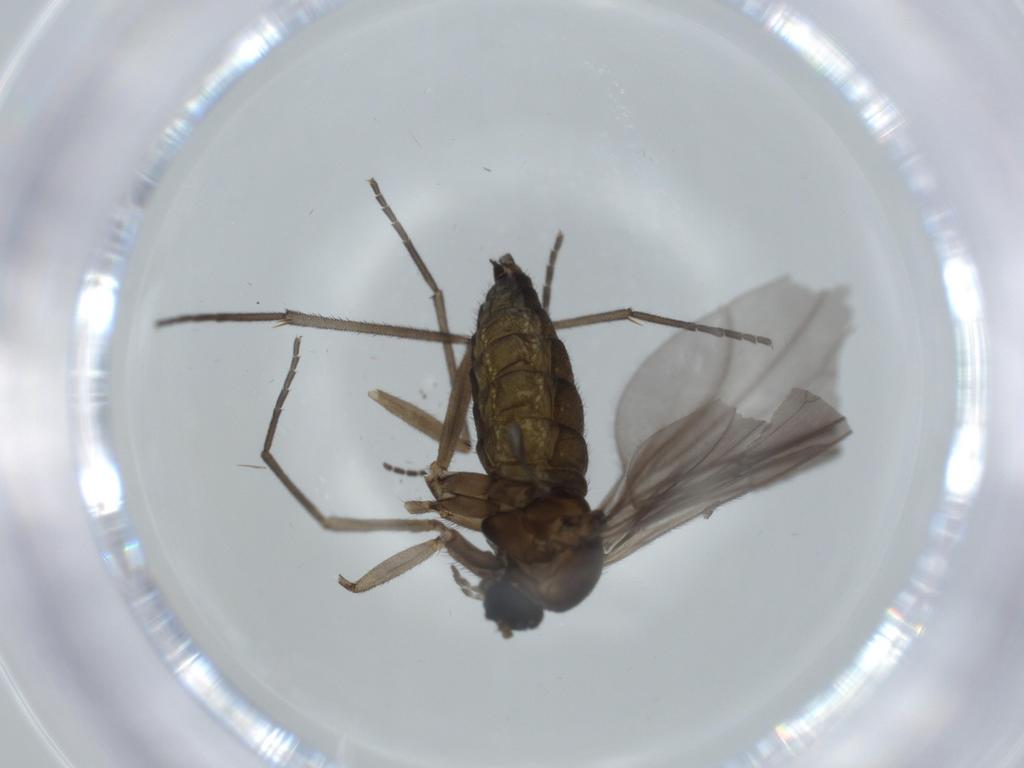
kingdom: Animalia
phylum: Arthropoda
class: Insecta
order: Diptera
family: Sciaridae
